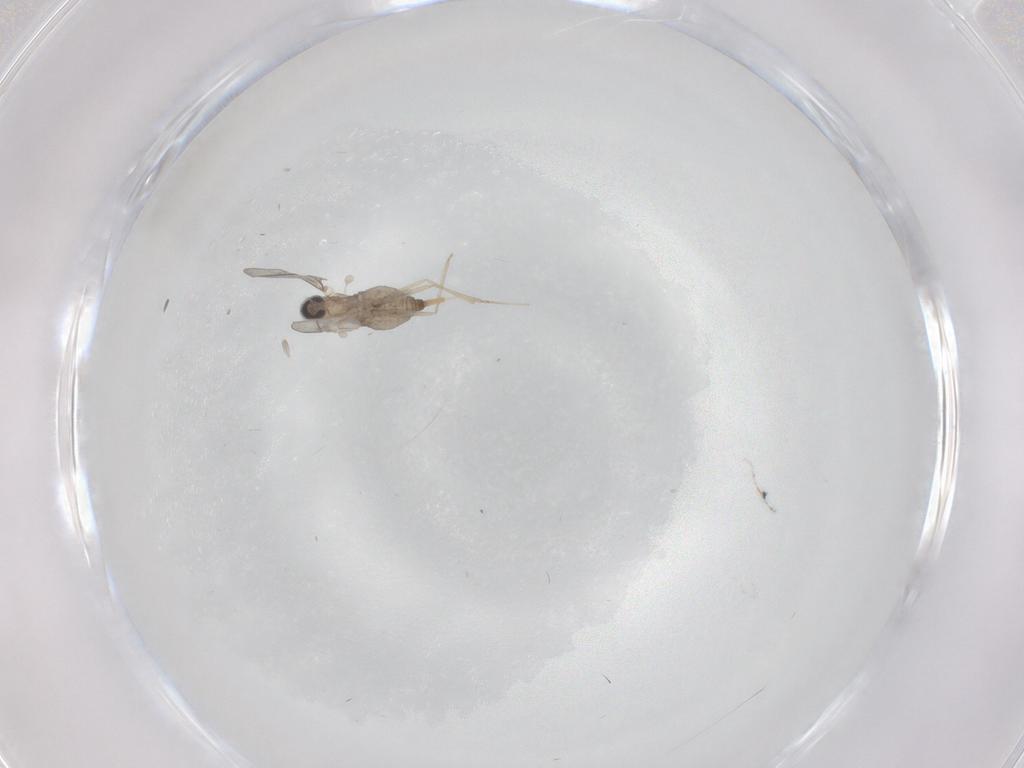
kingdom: Animalia
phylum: Arthropoda
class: Insecta
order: Diptera
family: Cecidomyiidae
